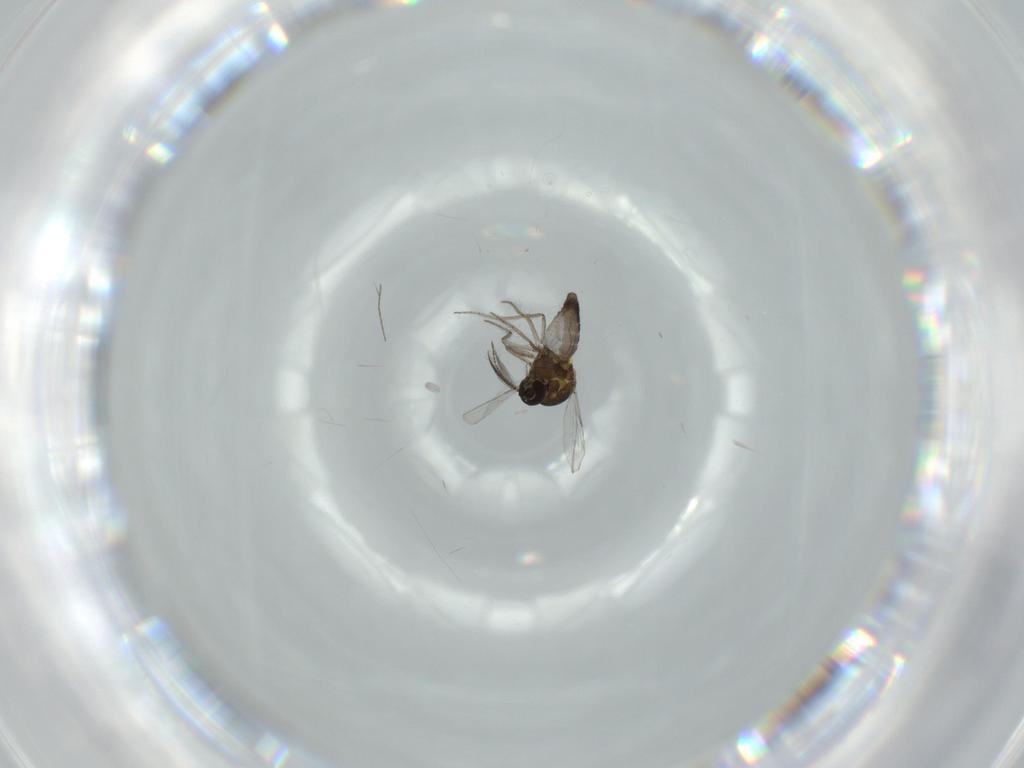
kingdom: Animalia
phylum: Arthropoda
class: Insecta
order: Diptera
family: Ceratopogonidae
